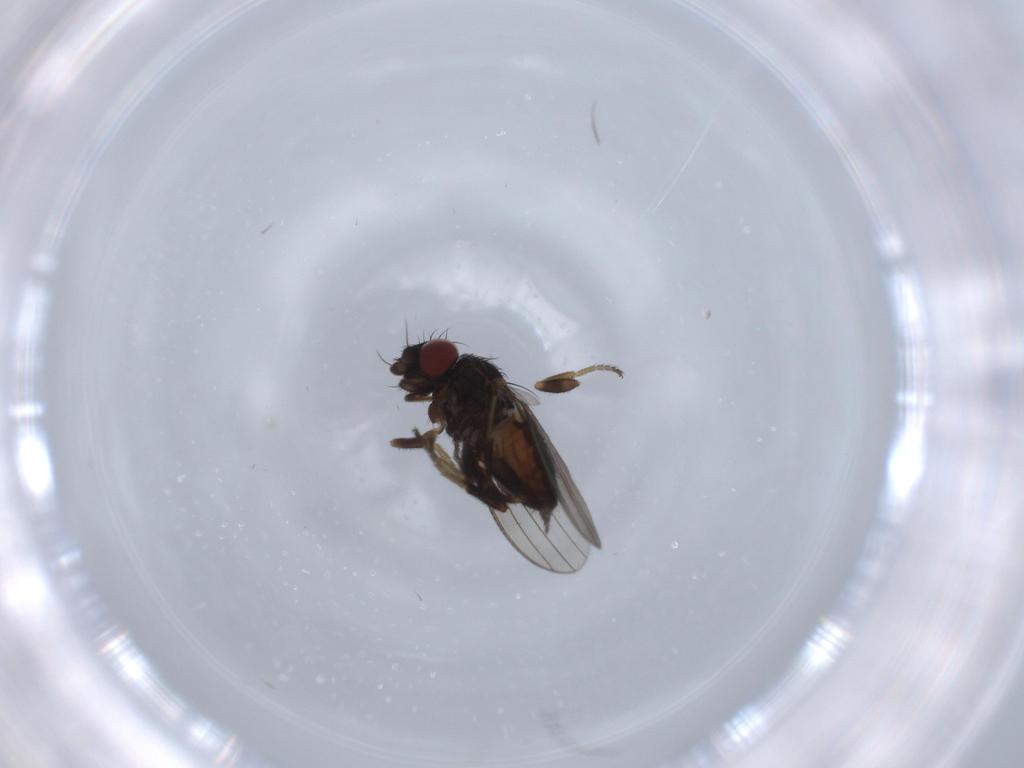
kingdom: Animalia
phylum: Arthropoda
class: Insecta
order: Diptera
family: Milichiidae
